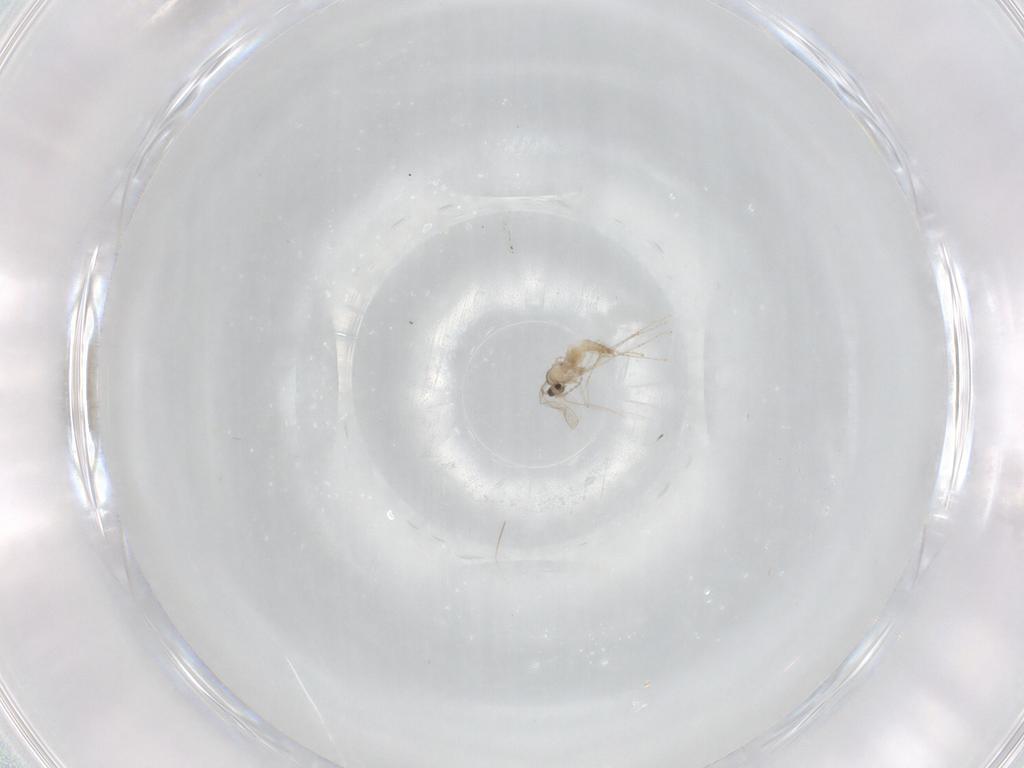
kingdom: Animalia
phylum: Arthropoda
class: Insecta
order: Diptera
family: Cecidomyiidae
